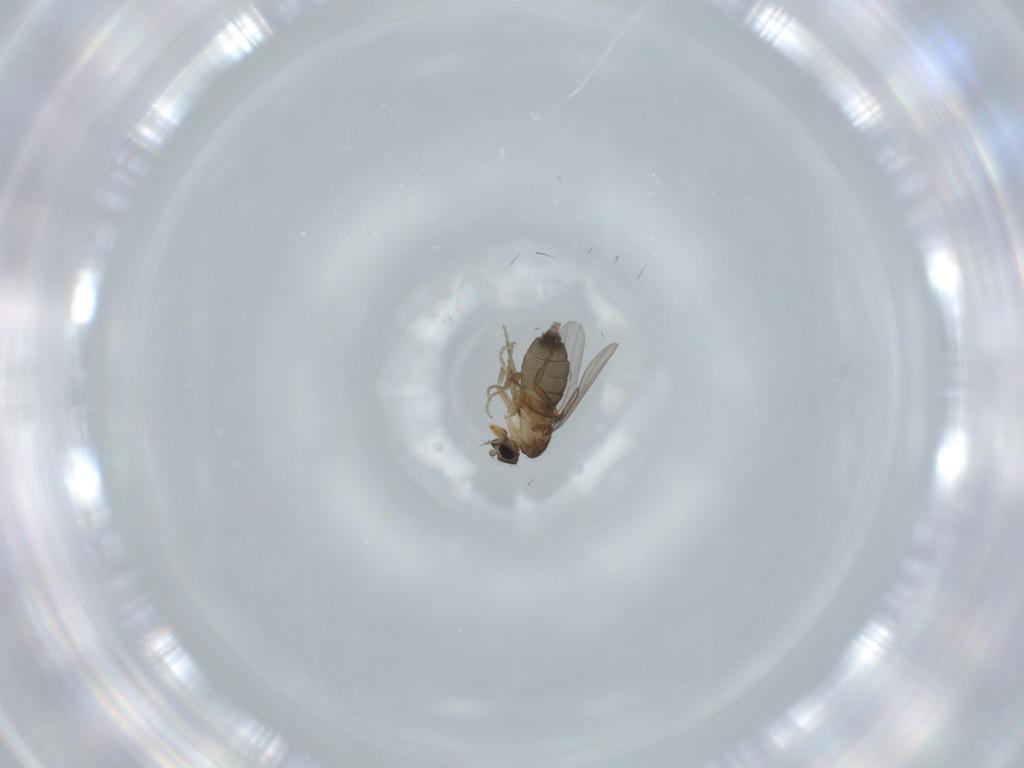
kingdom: Animalia
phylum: Arthropoda
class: Insecta
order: Diptera
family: Phoridae
